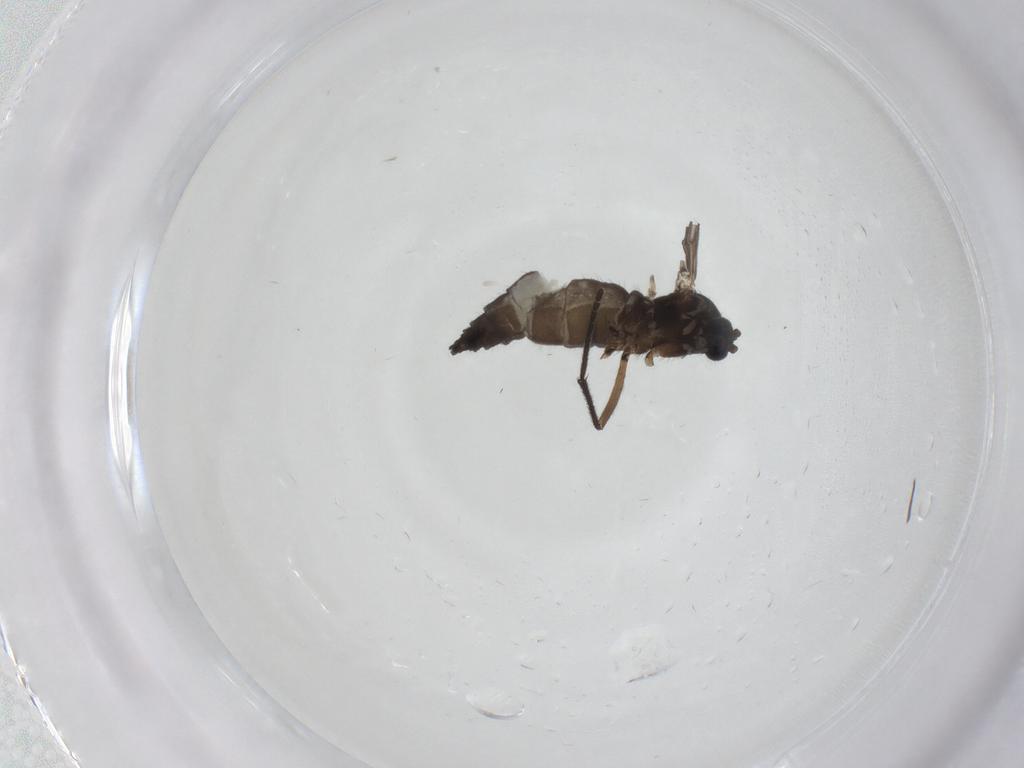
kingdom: Animalia
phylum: Arthropoda
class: Insecta
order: Diptera
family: Sciaridae
